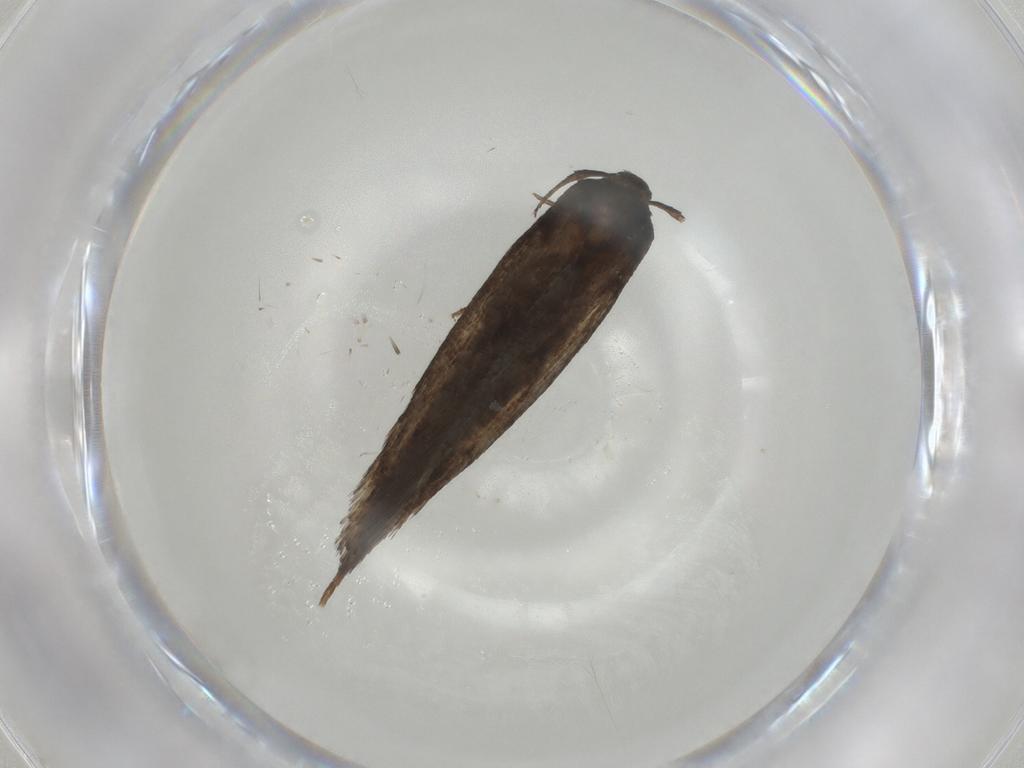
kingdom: Animalia
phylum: Arthropoda
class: Insecta
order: Lepidoptera
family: Gelechiidae
